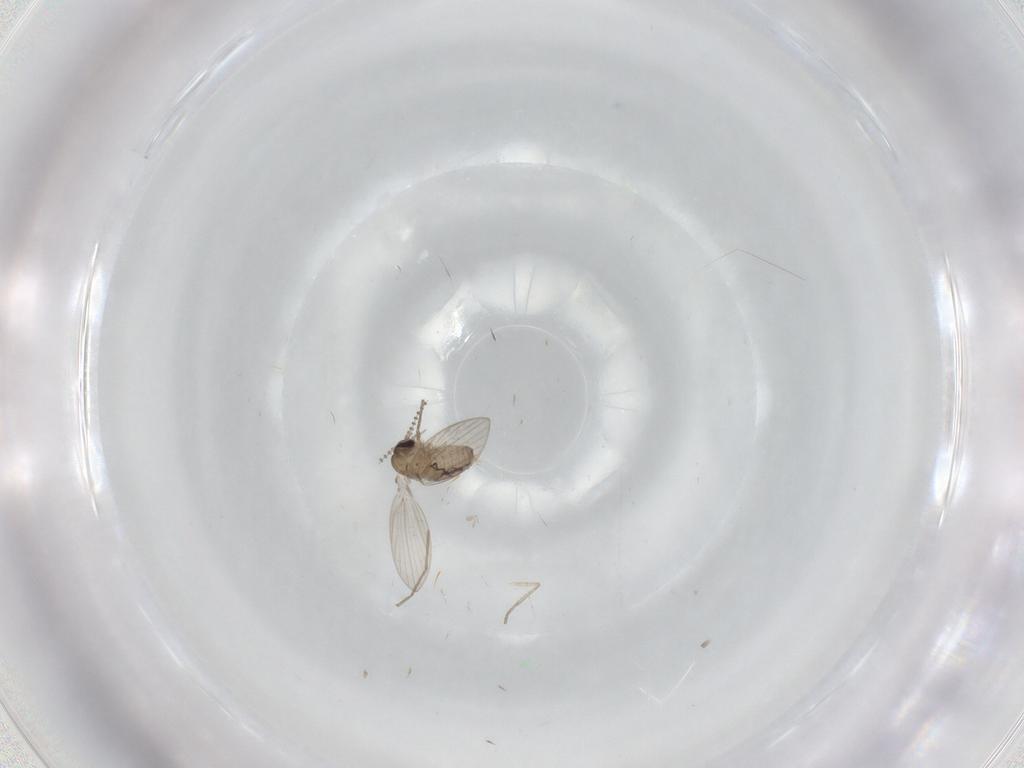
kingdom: Animalia
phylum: Arthropoda
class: Insecta
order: Diptera
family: Psychodidae
